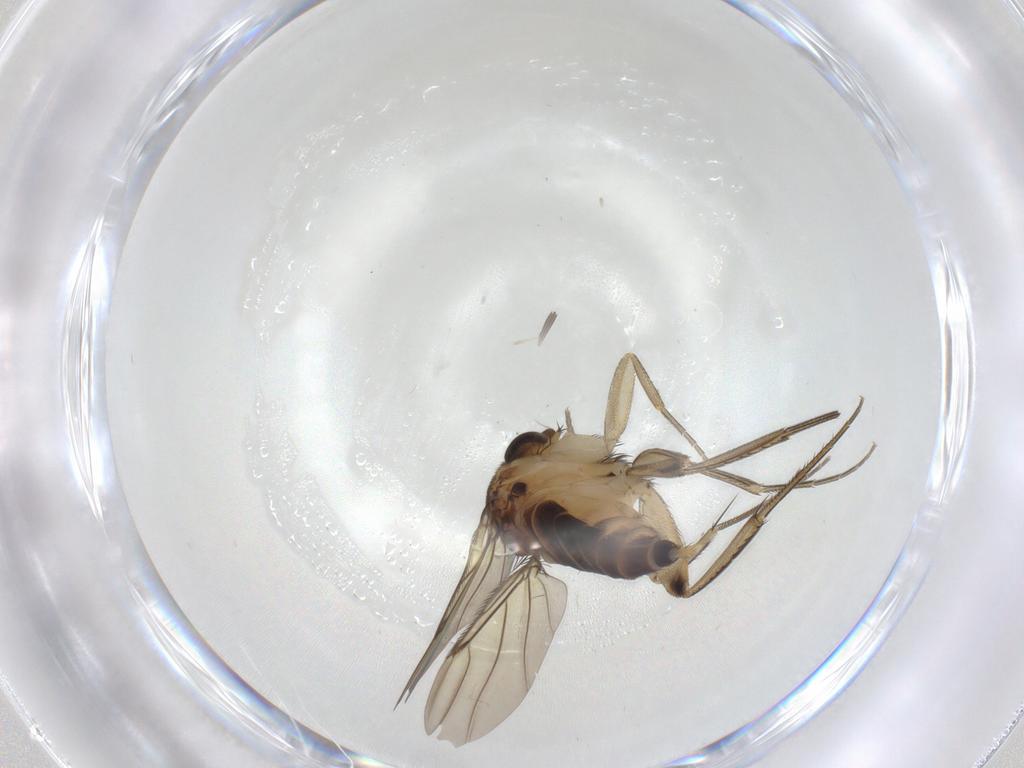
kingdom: Animalia
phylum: Arthropoda
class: Insecta
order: Diptera
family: Phoridae
